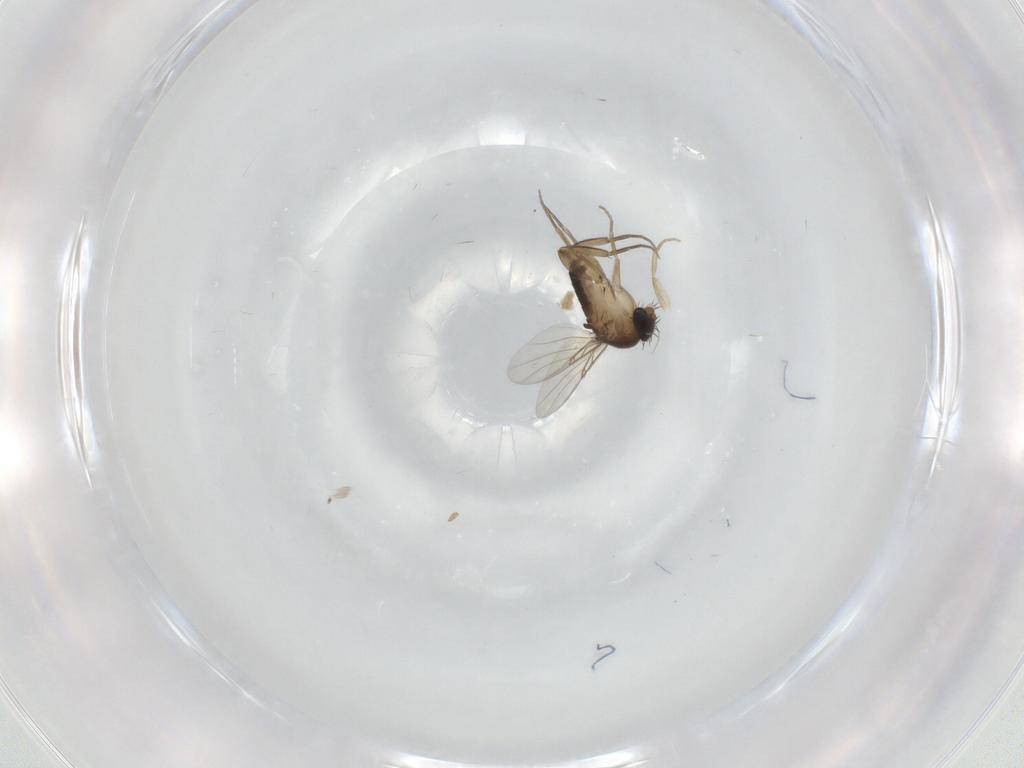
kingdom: Animalia
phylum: Arthropoda
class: Insecta
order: Diptera
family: Phoridae
